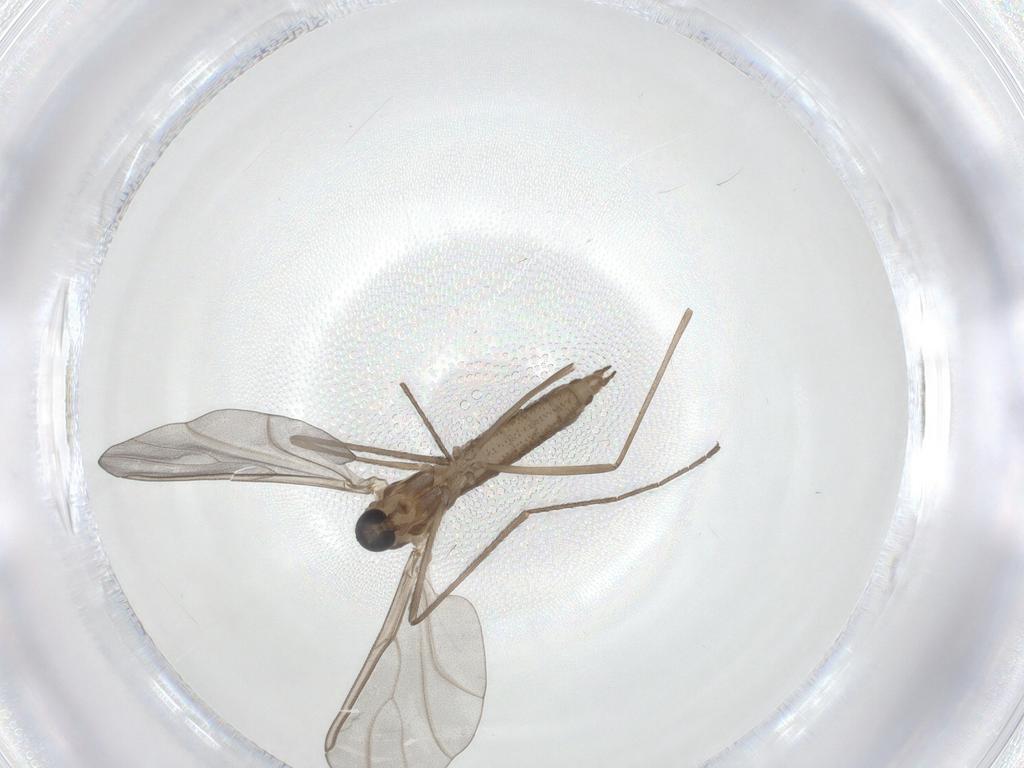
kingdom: Animalia
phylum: Arthropoda
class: Insecta
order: Diptera
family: Cecidomyiidae
